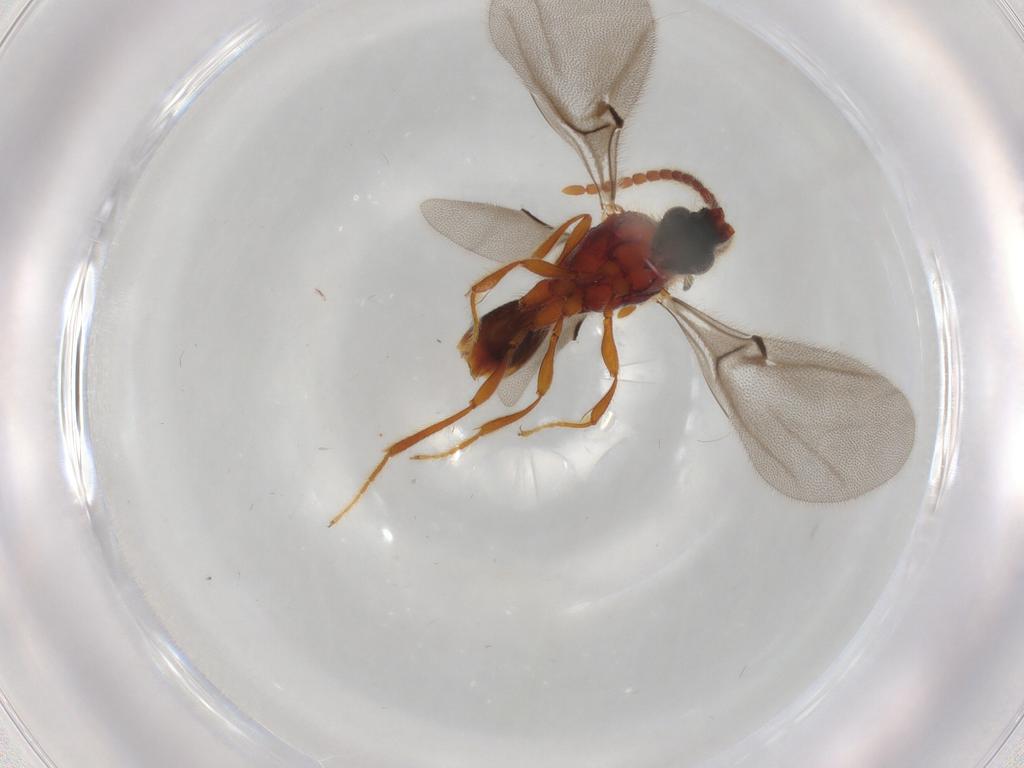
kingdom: Animalia
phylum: Arthropoda
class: Insecta
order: Hymenoptera
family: Diapriidae
